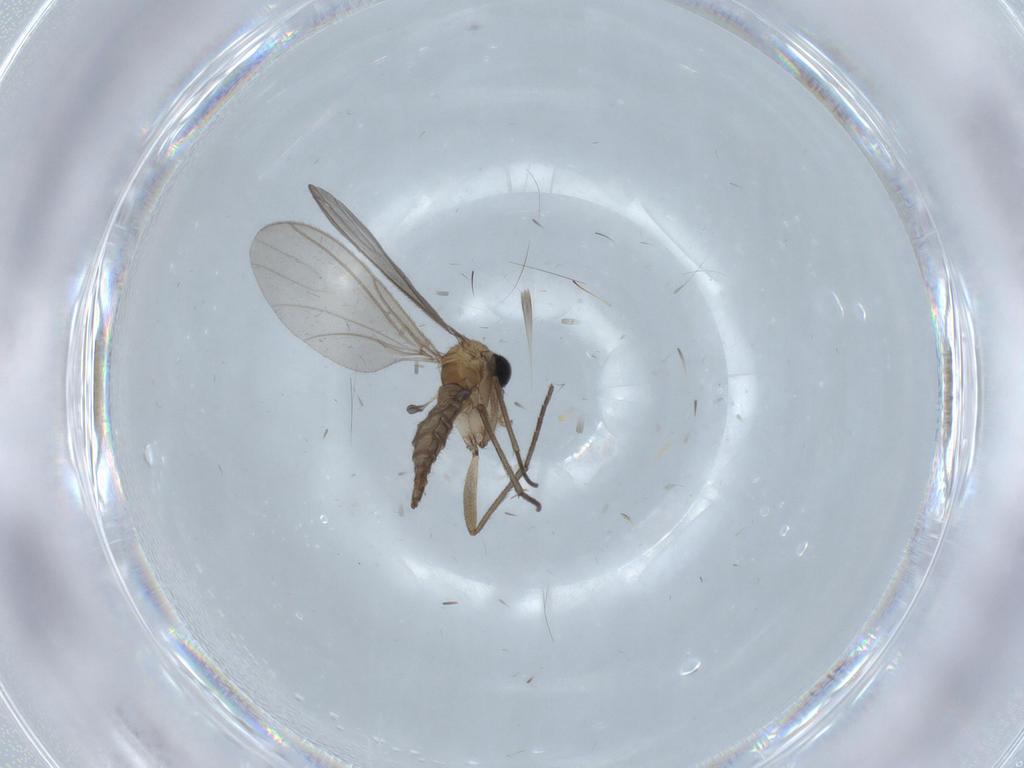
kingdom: Animalia
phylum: Arthropoda
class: Insecta
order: Diptera
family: Sciaridae
